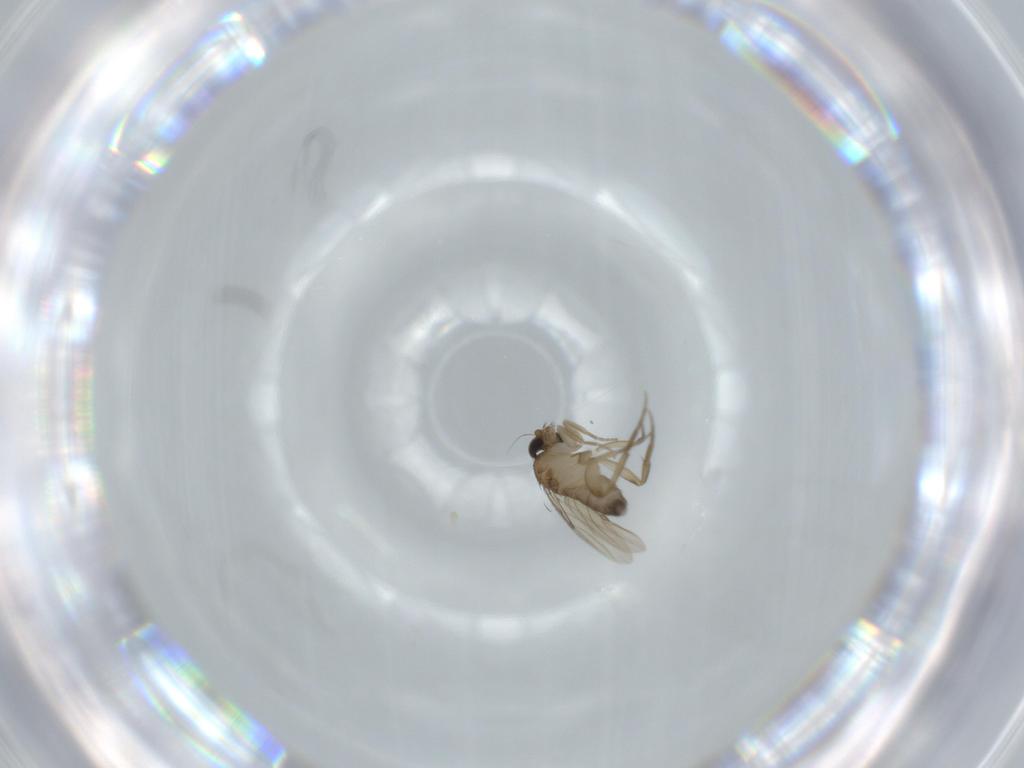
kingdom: Animalia
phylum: Arthropoda
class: Insecta
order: Diptera
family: Phoridae
